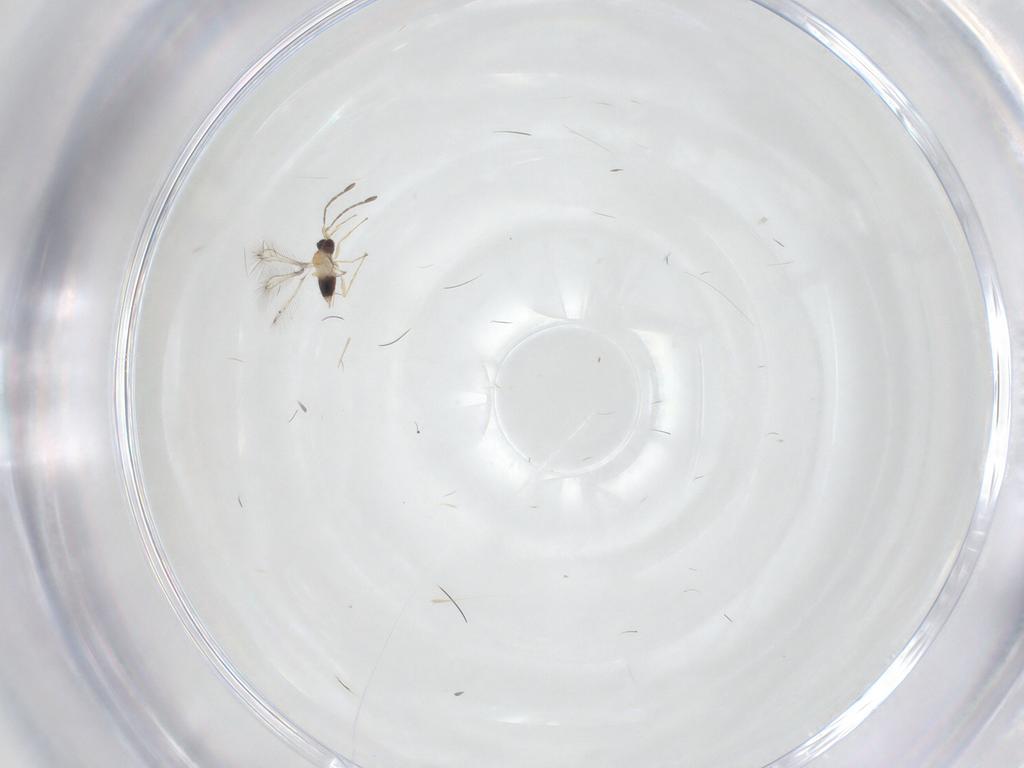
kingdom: Animalia
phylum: Arthropoda
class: Insecta
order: Hymenoptera
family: Mymaridae
